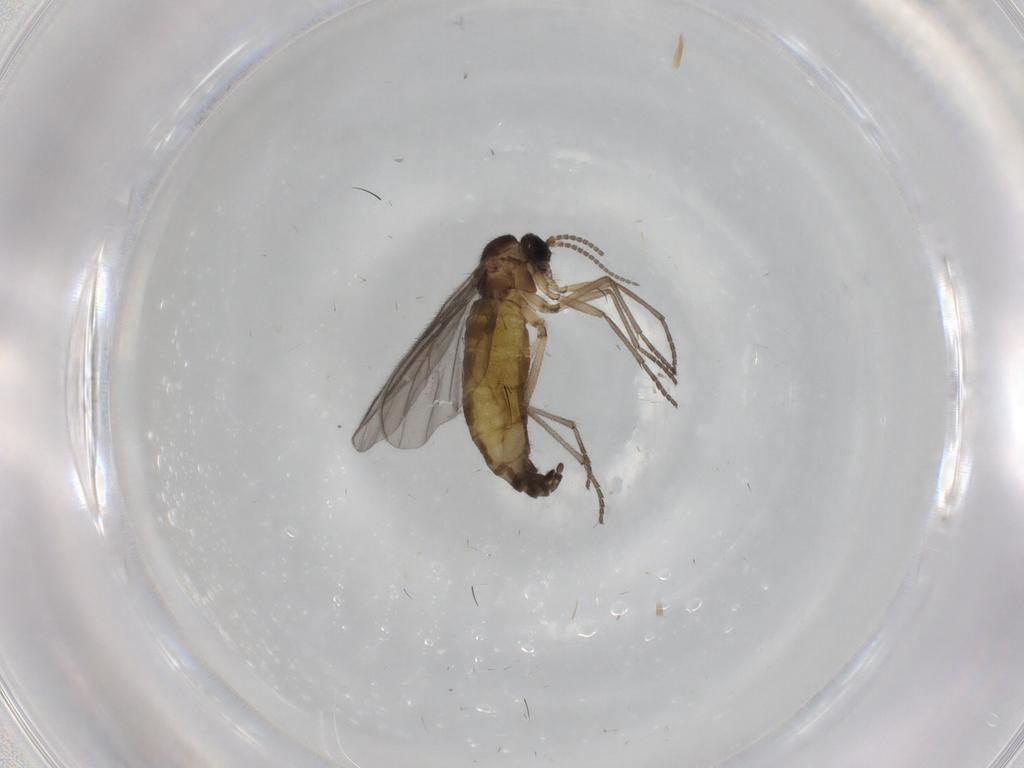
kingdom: Animalia
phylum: Arthropoda
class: Insecta
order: Diptera
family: Sciaridae
